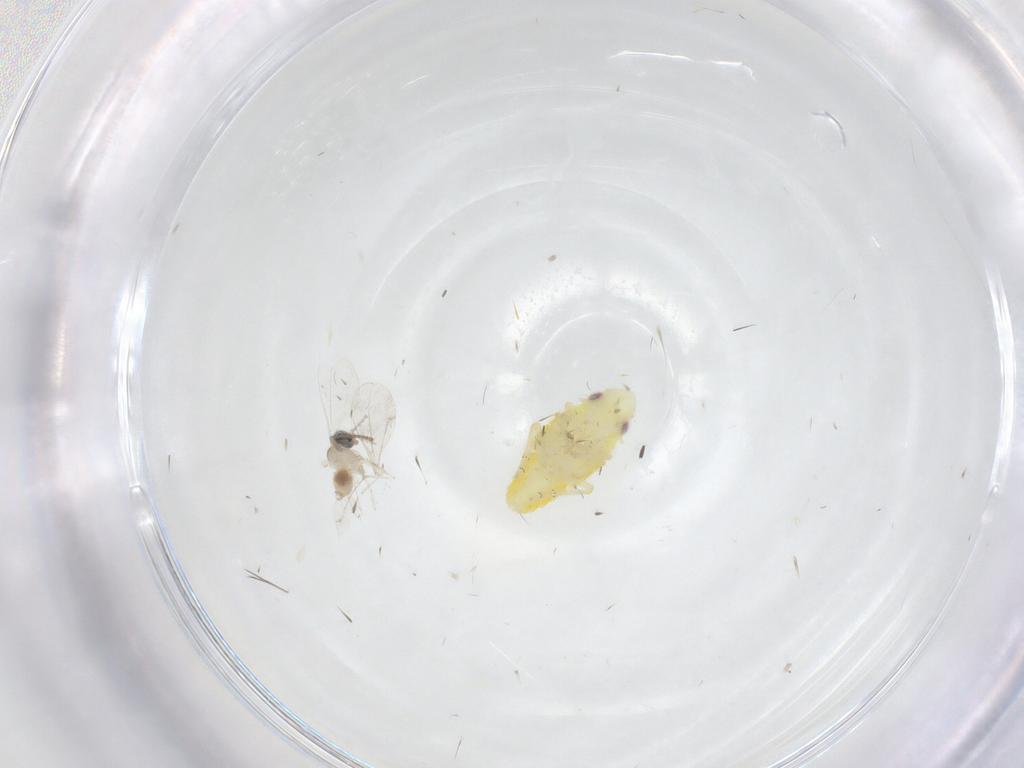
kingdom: Animalia
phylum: Arthropoda
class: Insecta
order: Diptera
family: Cecidomyiidae
